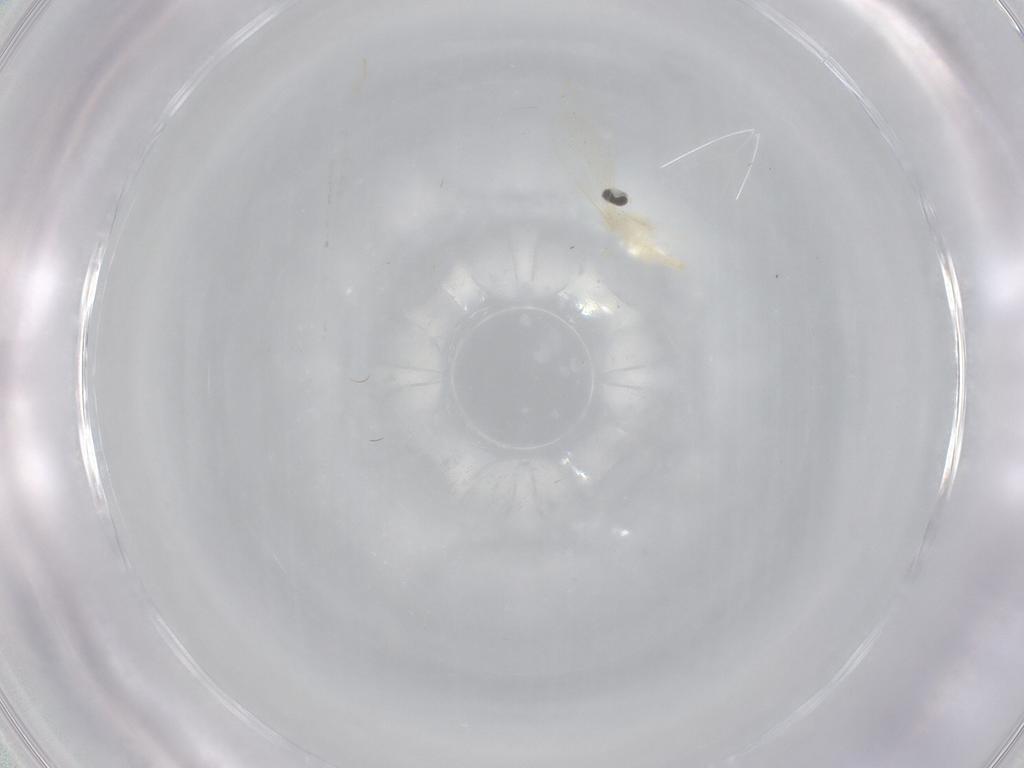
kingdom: Animalia
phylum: Arthropoda
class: Insecta
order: Diptera
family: Cecidomyiidae
